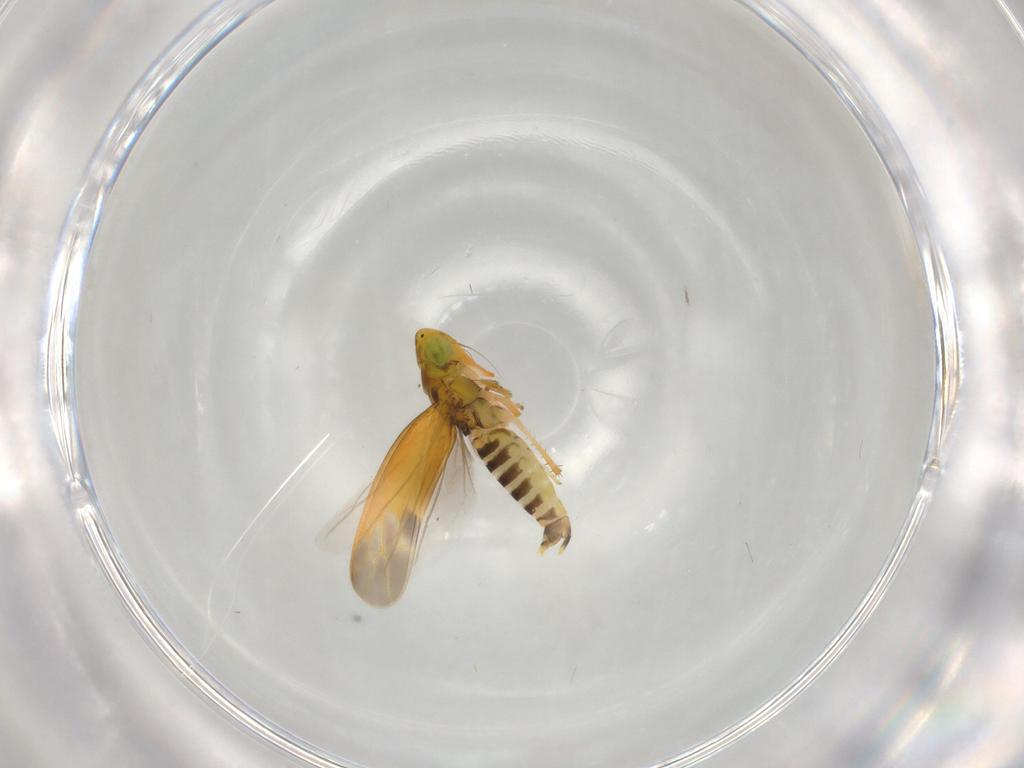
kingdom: Animalia
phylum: Arthropoda
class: Insecta
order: Hemiptera
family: Cicadellidae
